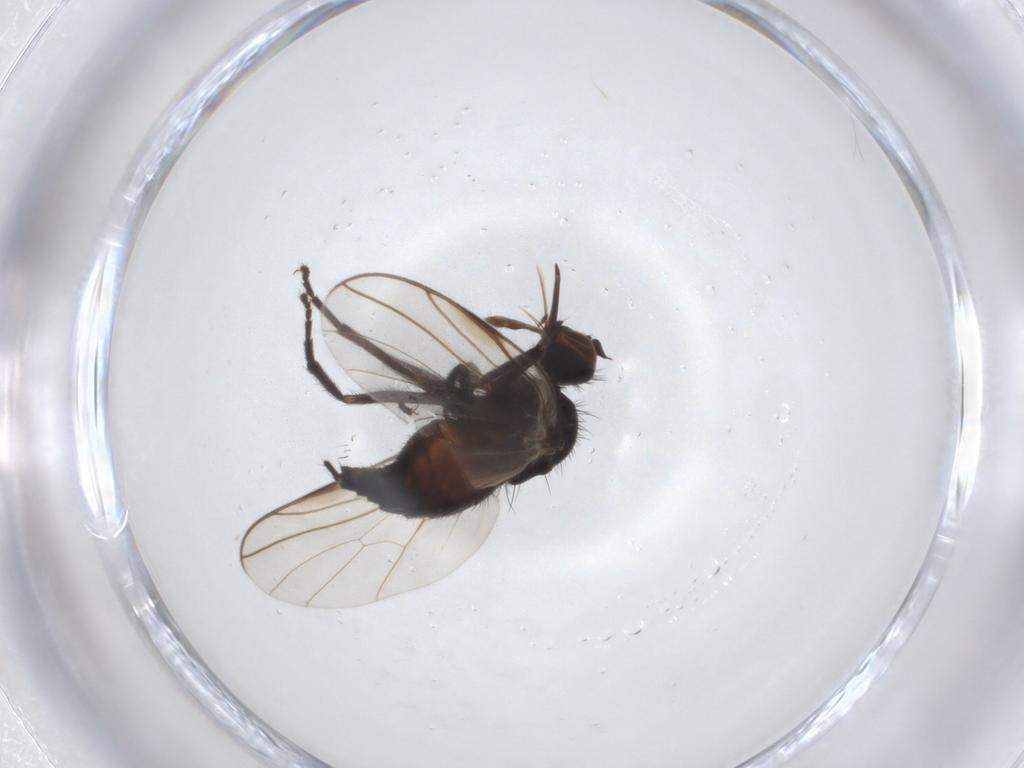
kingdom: Animalia
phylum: Arthropoda
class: Insecta
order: Diptera
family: Empididae
